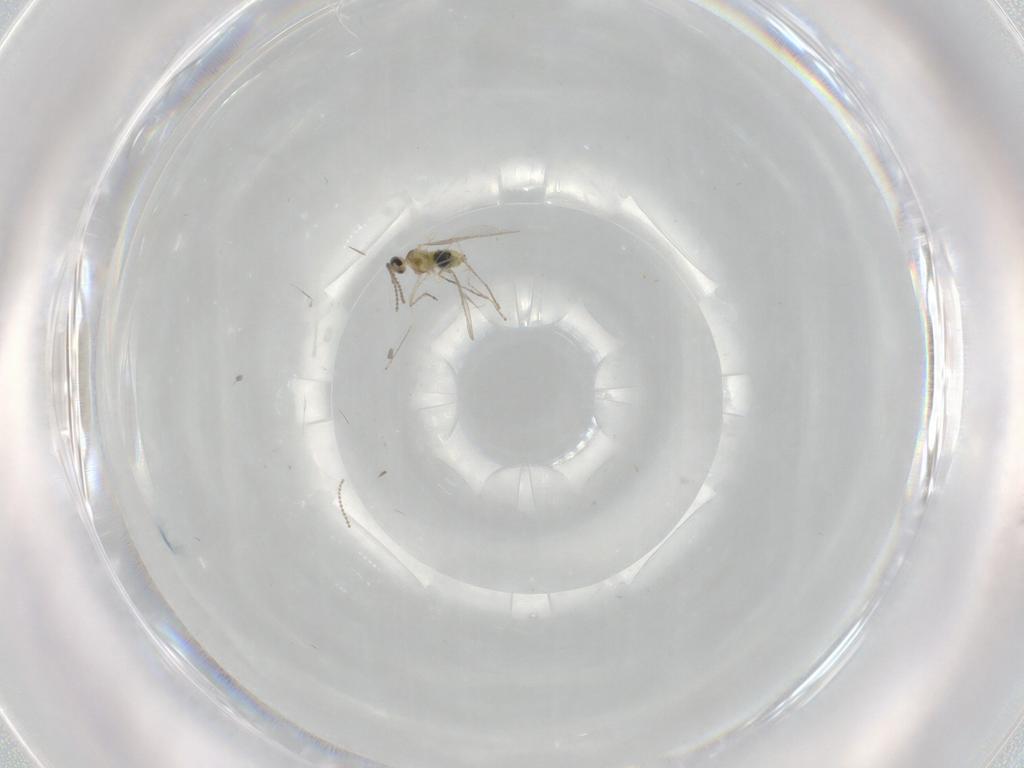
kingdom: Animalia
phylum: Arthropoda
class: Insecta
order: Diptera
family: Cecidomyiidae
